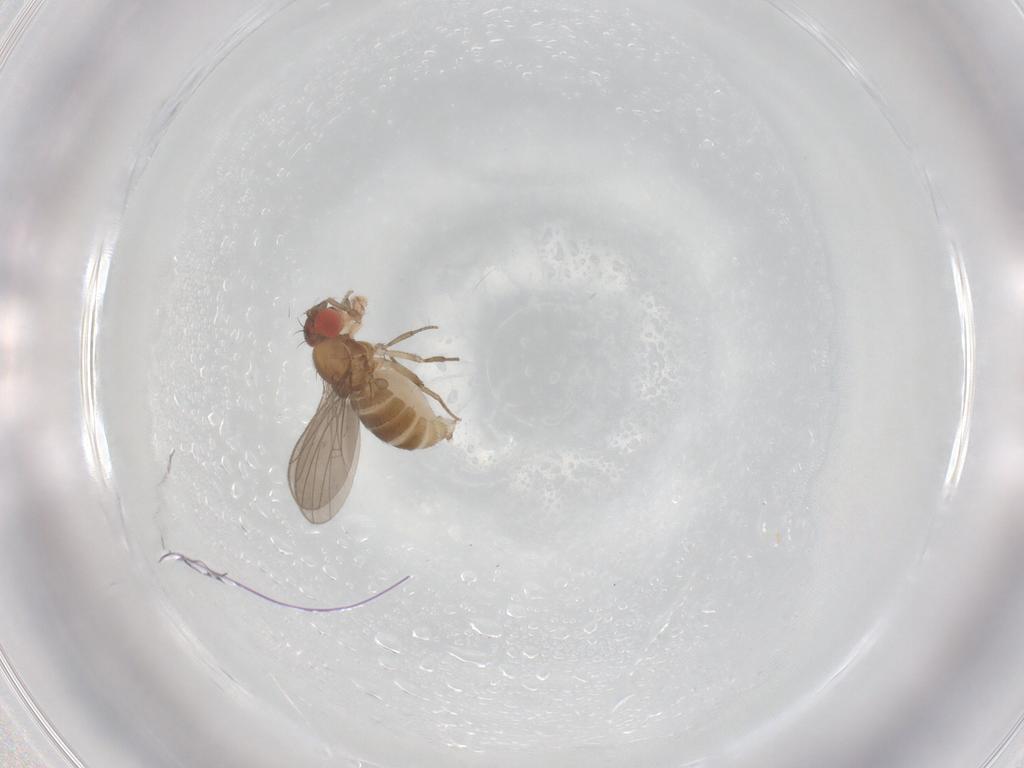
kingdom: Animalia
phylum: Arthropoda
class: Insecta
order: Diptera
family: Drosophilidae
